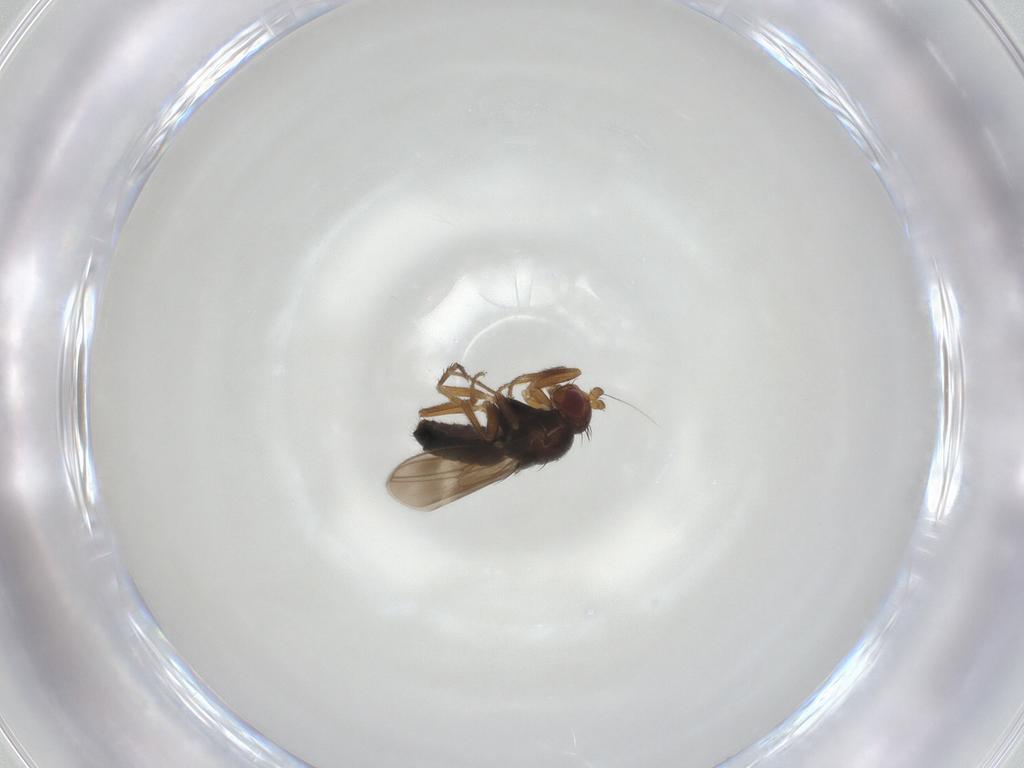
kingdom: Animalia
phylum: Arthropoda
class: Insecta
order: Diptera
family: Sphaeroceridae
